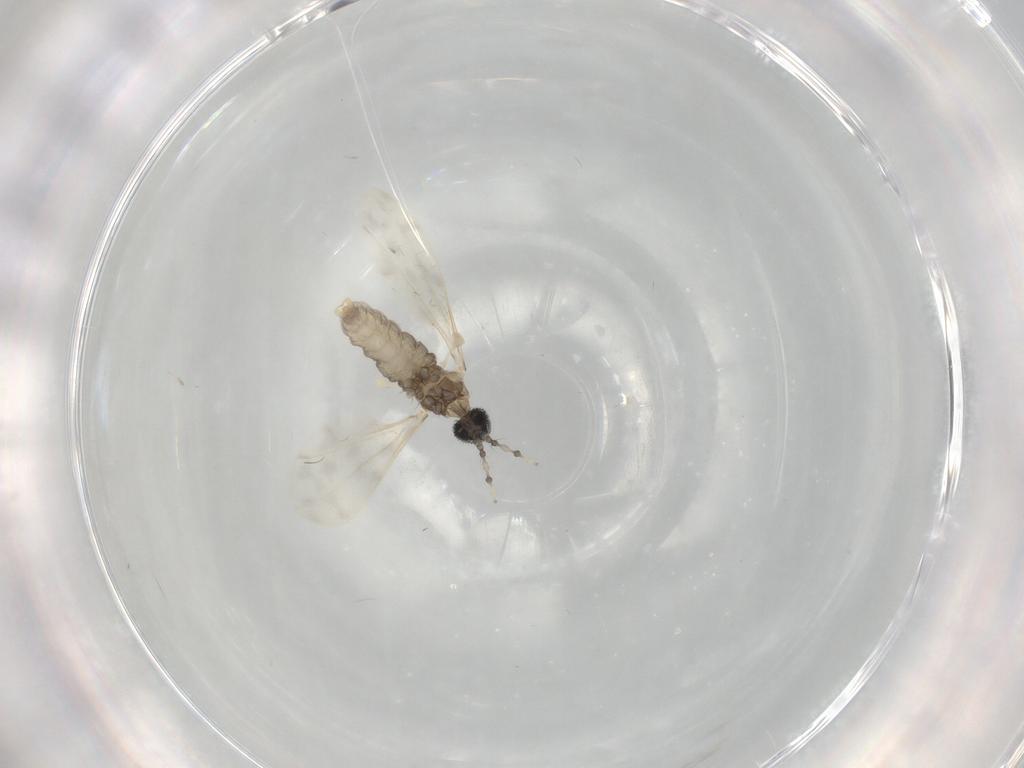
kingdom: Animalia
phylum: Arthropoda
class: Insecta
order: Diptera
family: Cecidomyiidae
